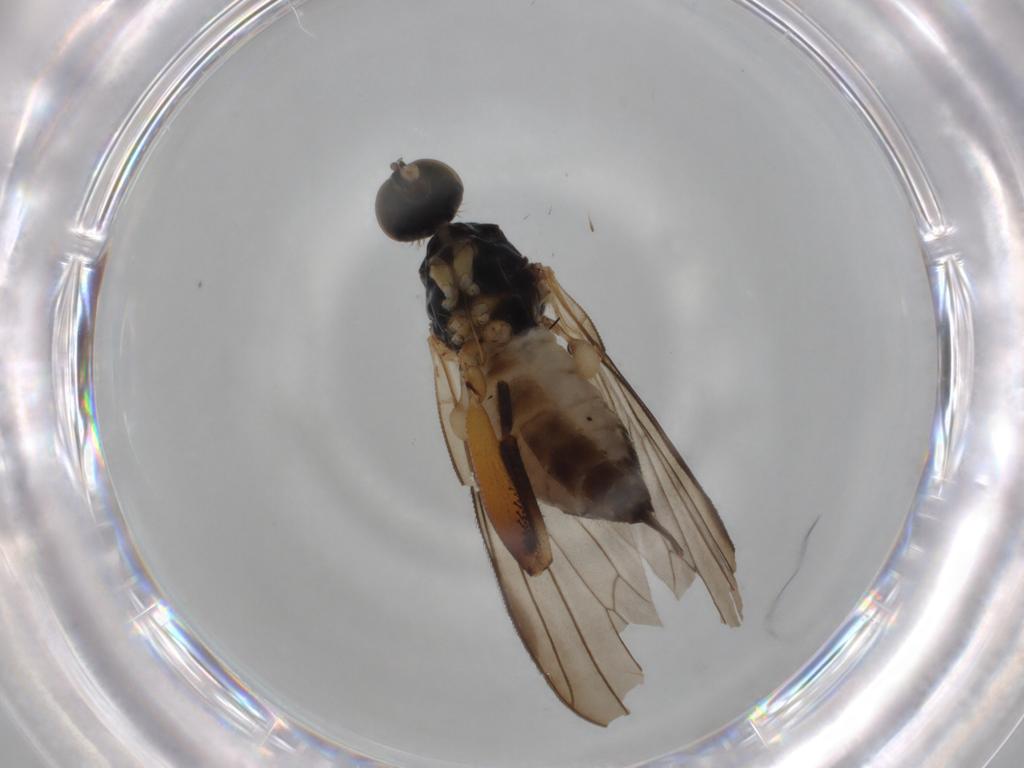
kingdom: Animalia
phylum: Arthropoda
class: Insecta
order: Diptera
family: Hybotidae
